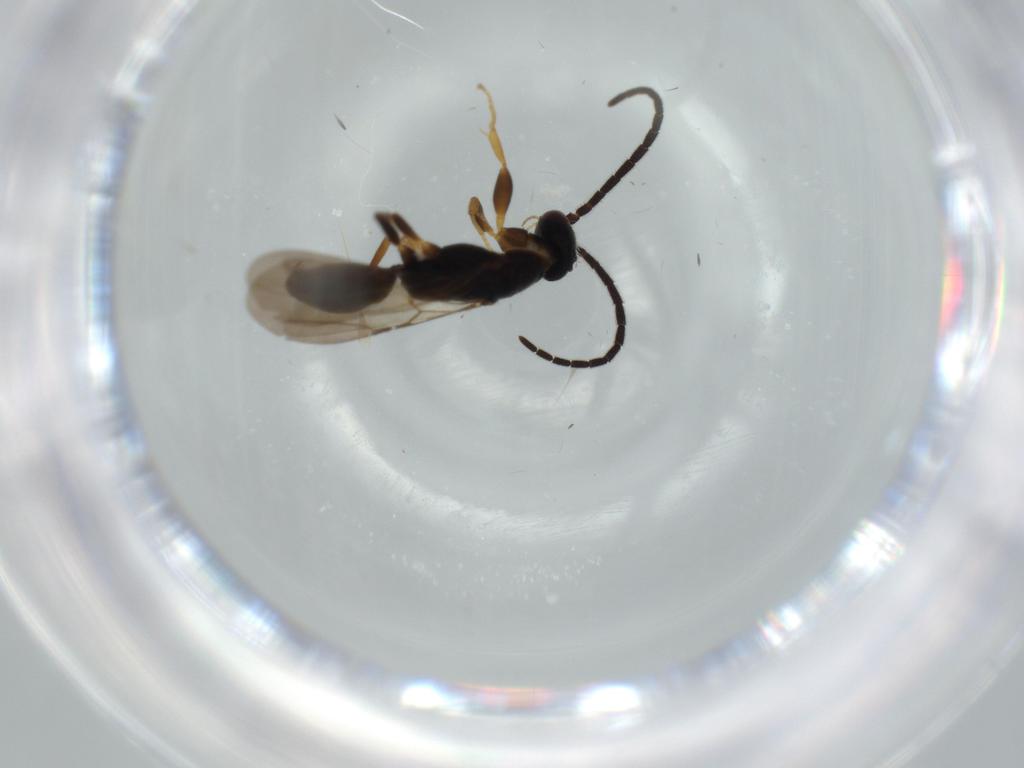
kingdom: Animalia
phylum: Arthropoda
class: Insecta
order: Hymenoptera
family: Bethylidae
